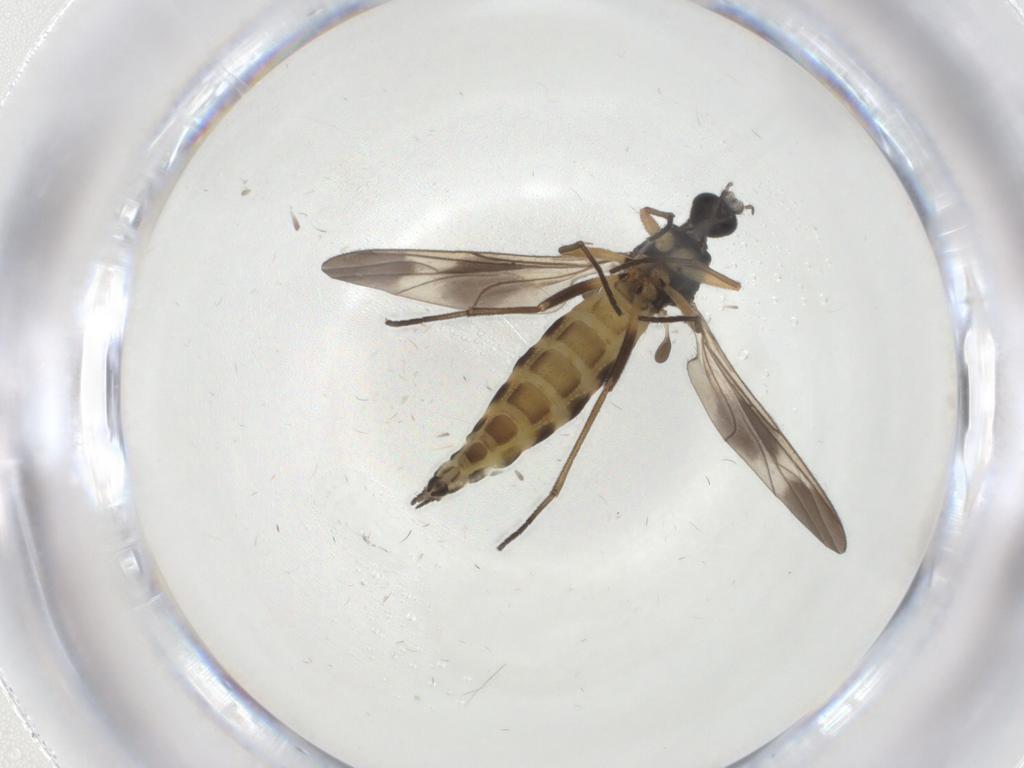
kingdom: Animalia
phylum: Arthropoda
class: Insecta
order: Diptera
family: Sciaridae
